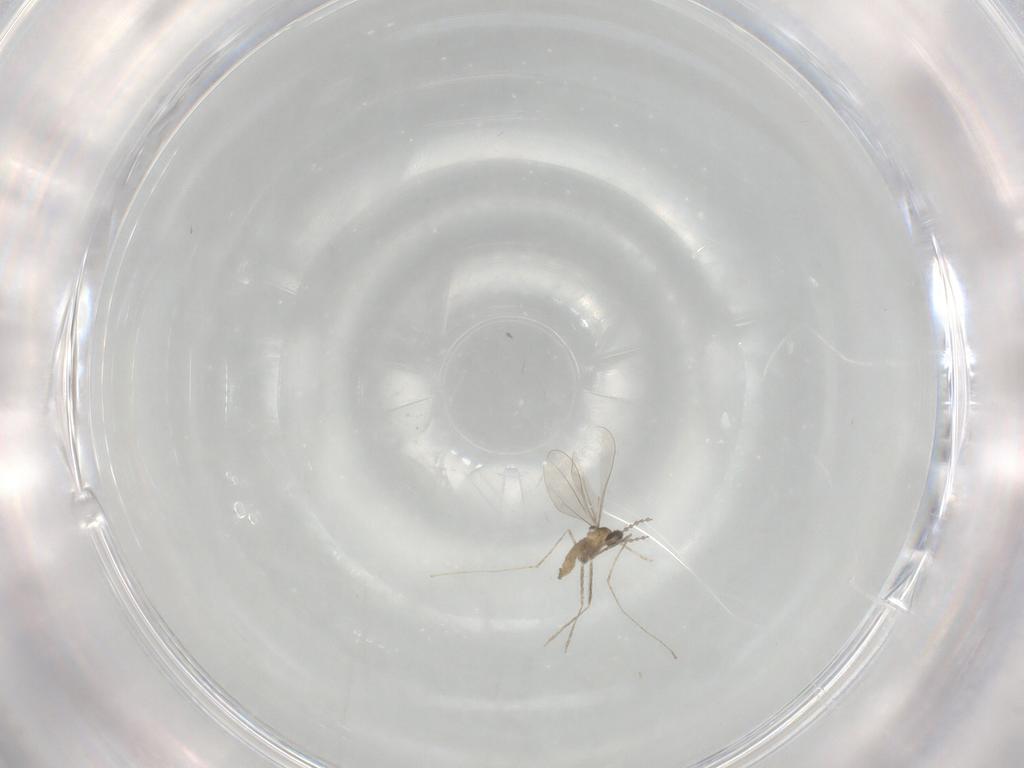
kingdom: Animalia
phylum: Arthropoda
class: Insecta
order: Diptera
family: Cecidomyiidae
